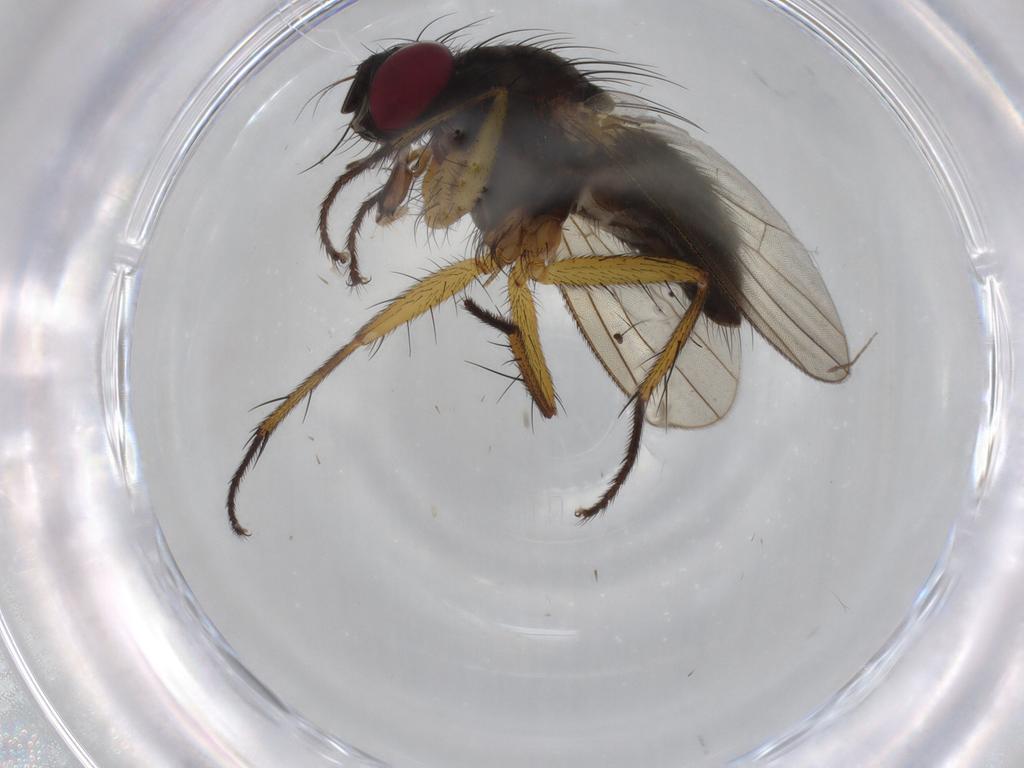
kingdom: Animalia
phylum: Arthropoda
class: Insecta
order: Diptera
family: Muscidae
